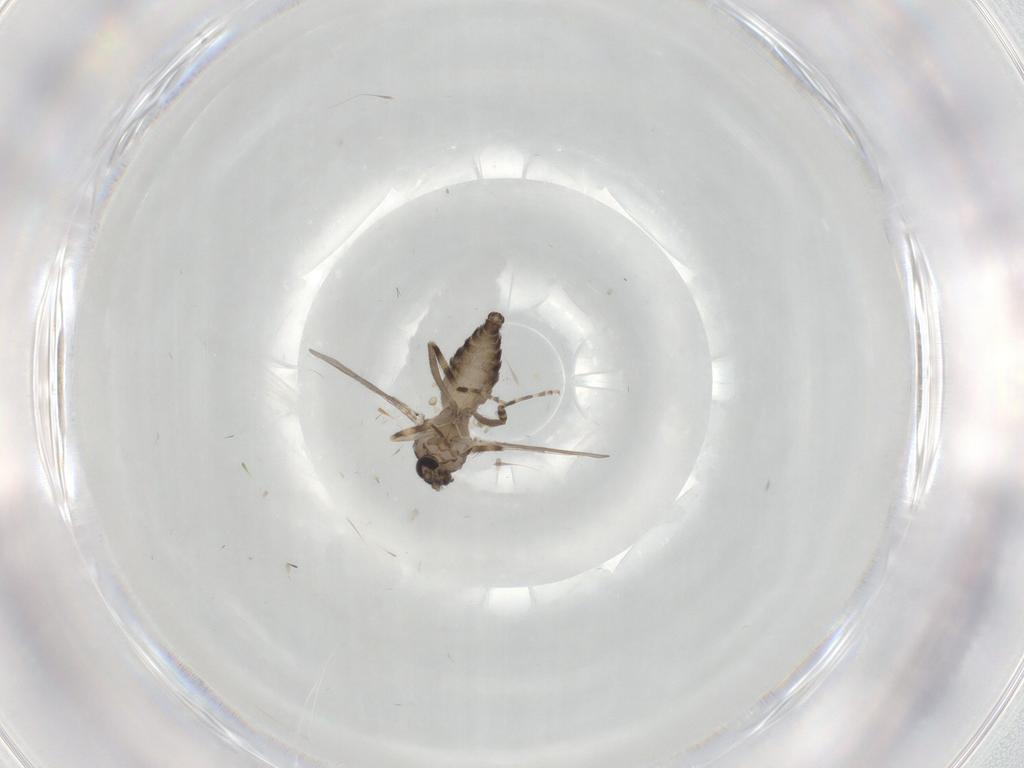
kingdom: Animalia
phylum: Arthropoda
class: Insecta
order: Diptera
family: Ceratopogonidae
